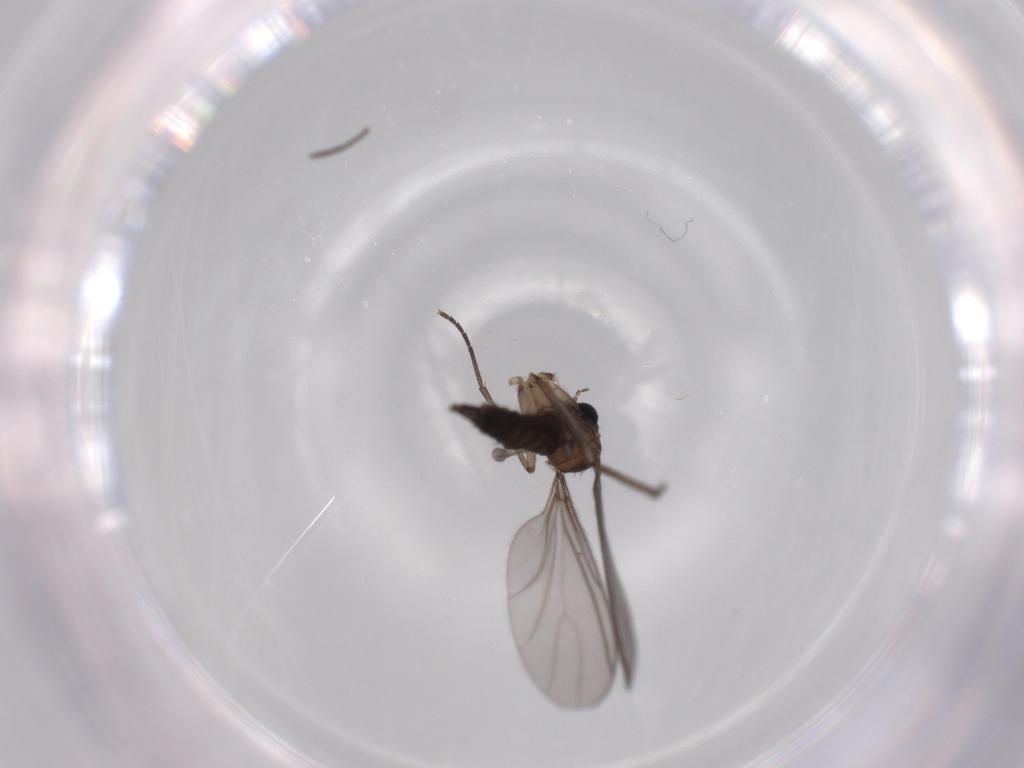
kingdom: Animalia
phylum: Arthropoda
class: Insecta
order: Diptera
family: Sciaridae
